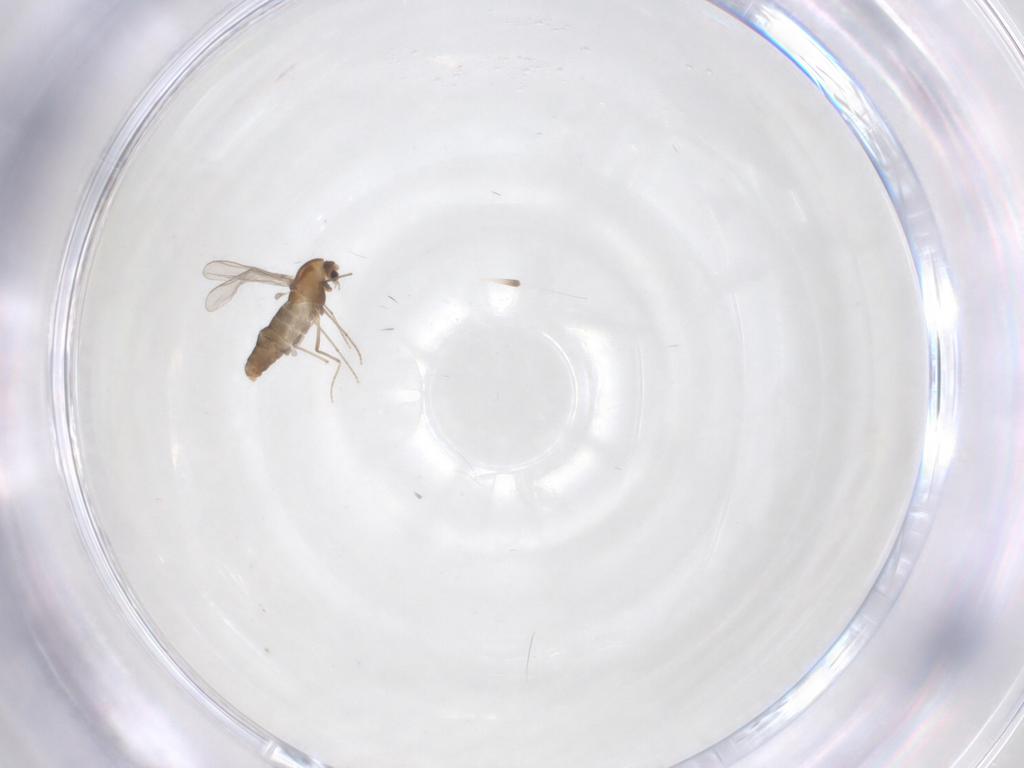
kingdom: Animalia
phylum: Arthropoda
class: Insecta
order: Diptera
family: Chironomidae
